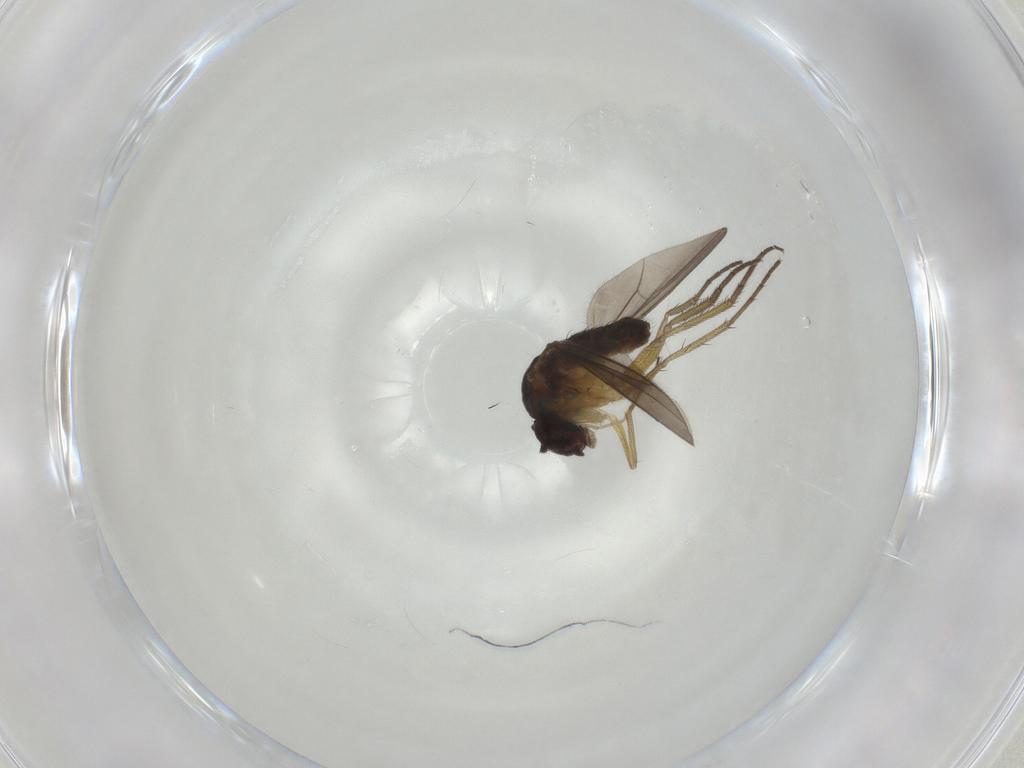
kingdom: Animalia
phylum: Arthropoda
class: Insecta
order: Diptera
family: Dolichopodidae
